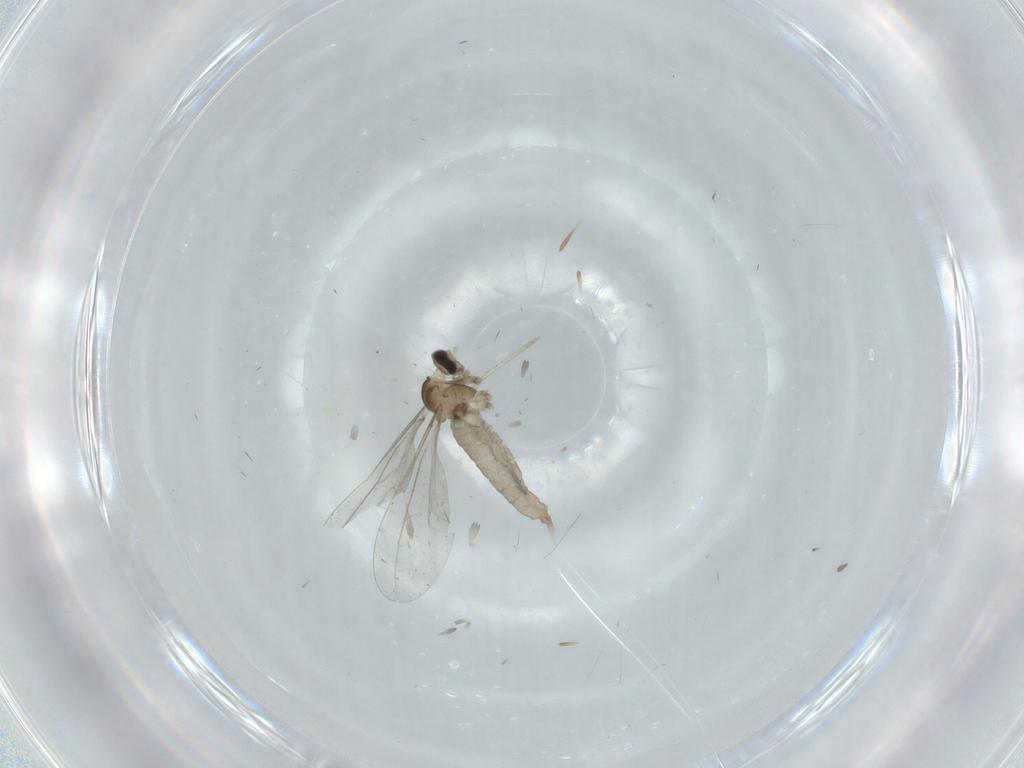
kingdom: Animalia
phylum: Arthropoda
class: Insecta
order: Diptera
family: Cecidomyiidae
